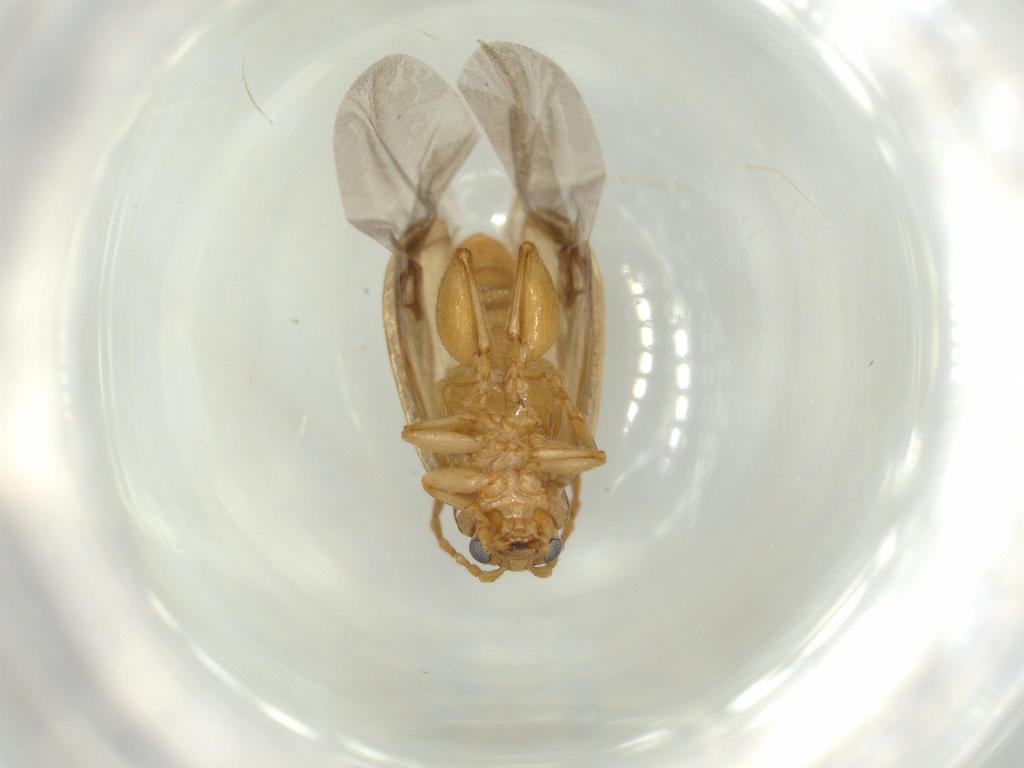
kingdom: Animalia
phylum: Arthropoda
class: Insecta
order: Coleoptera
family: Chrysomelidae
